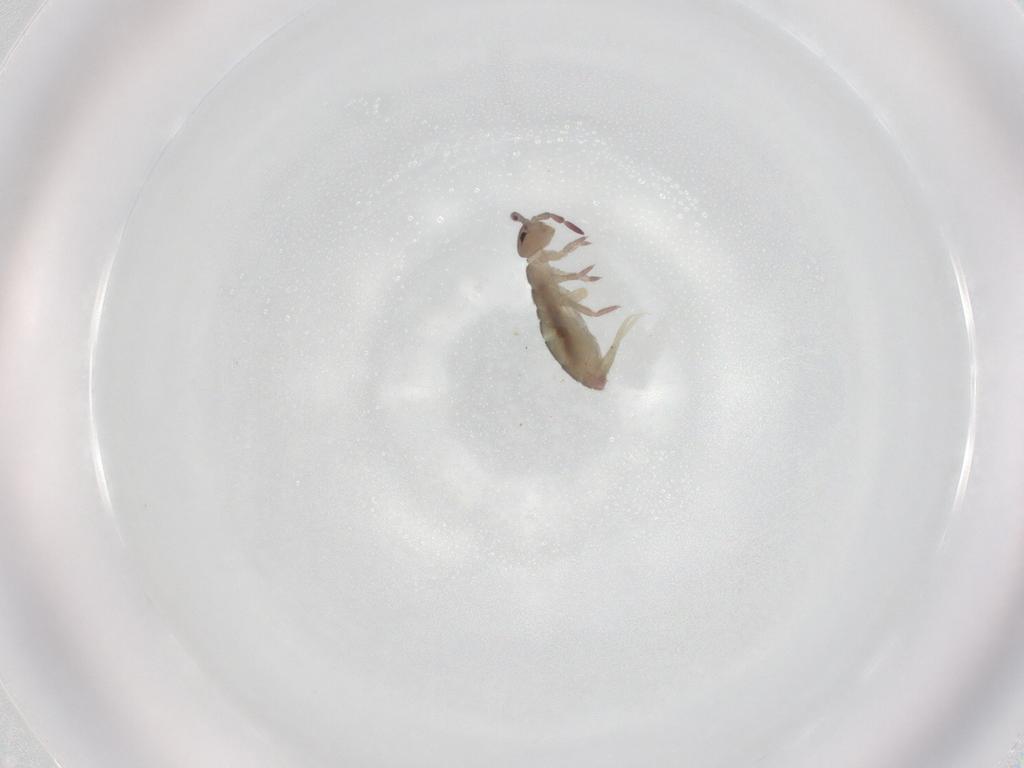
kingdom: Animalia
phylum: Arthropoda
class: Collembola
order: Entomobryomorpha
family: Isotomidae
